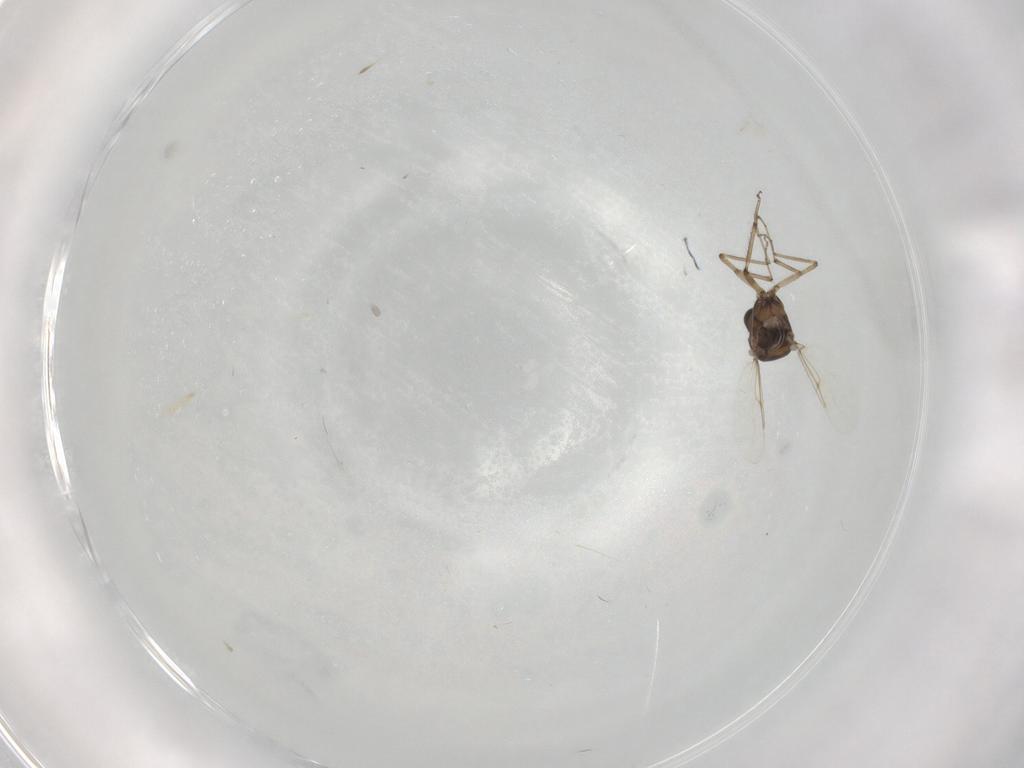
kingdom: Animalia
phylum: Arthropoda
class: Insecta
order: Diptera
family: Ceratopogonidae
